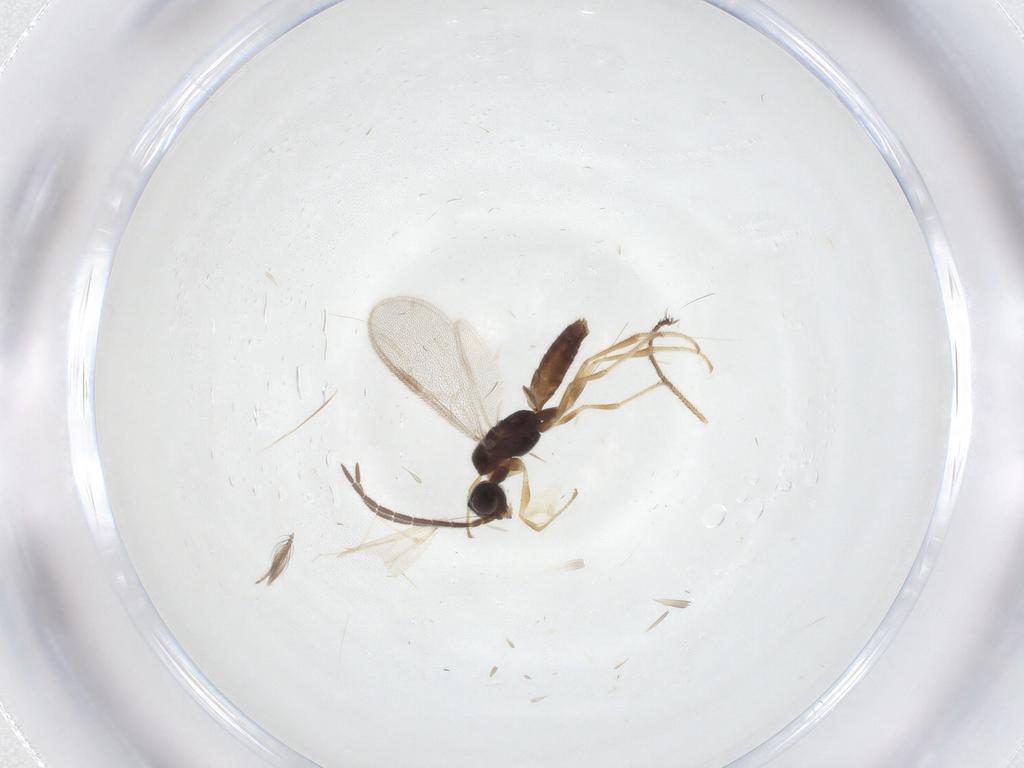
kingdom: Animalia
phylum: Arthropoda
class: Insecta
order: Hymenoptera
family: Dryinidae
